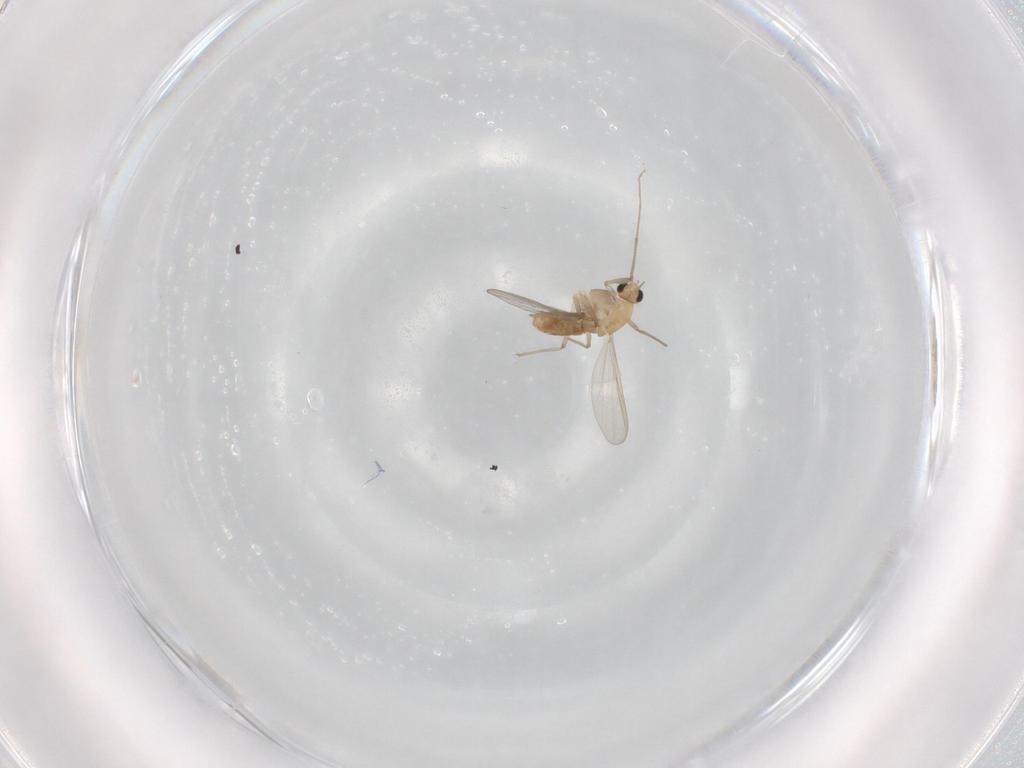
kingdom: Animalia
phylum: Arthropoda
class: Insecta
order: Diptera
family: Chironomidae
